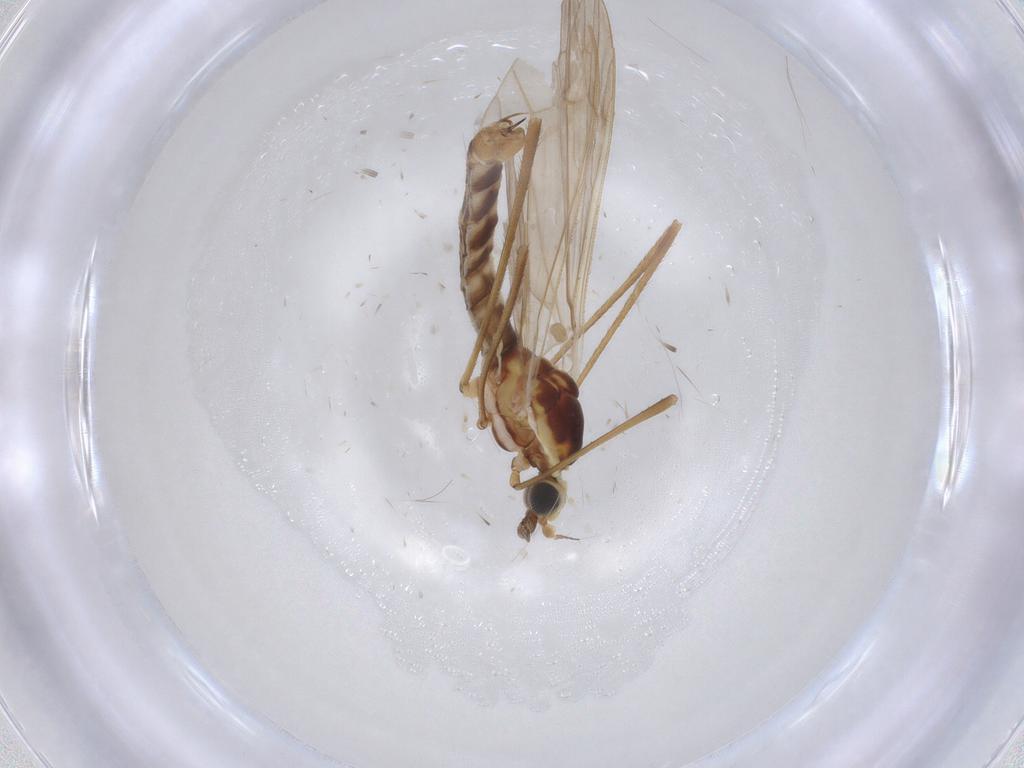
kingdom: Animalia
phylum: Arthropoda
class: Insecta
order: Diptera
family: Limoniidae
